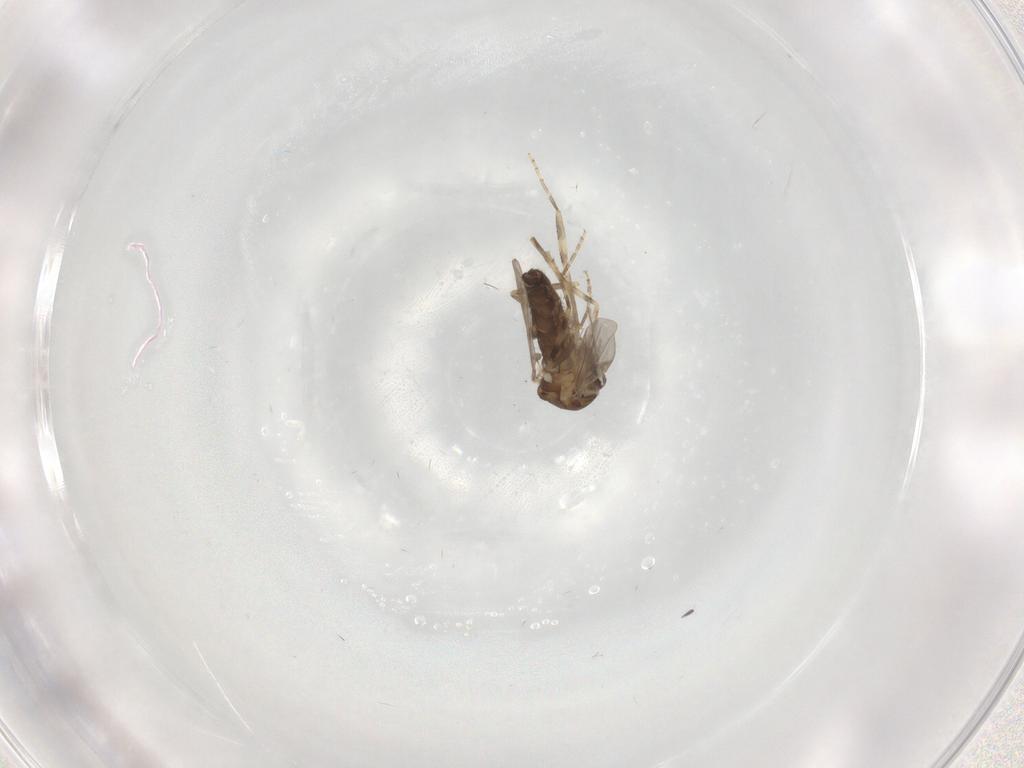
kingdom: Animalia
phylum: Arthropoda
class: Insecta
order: Diptera
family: Ceratopogonidae
